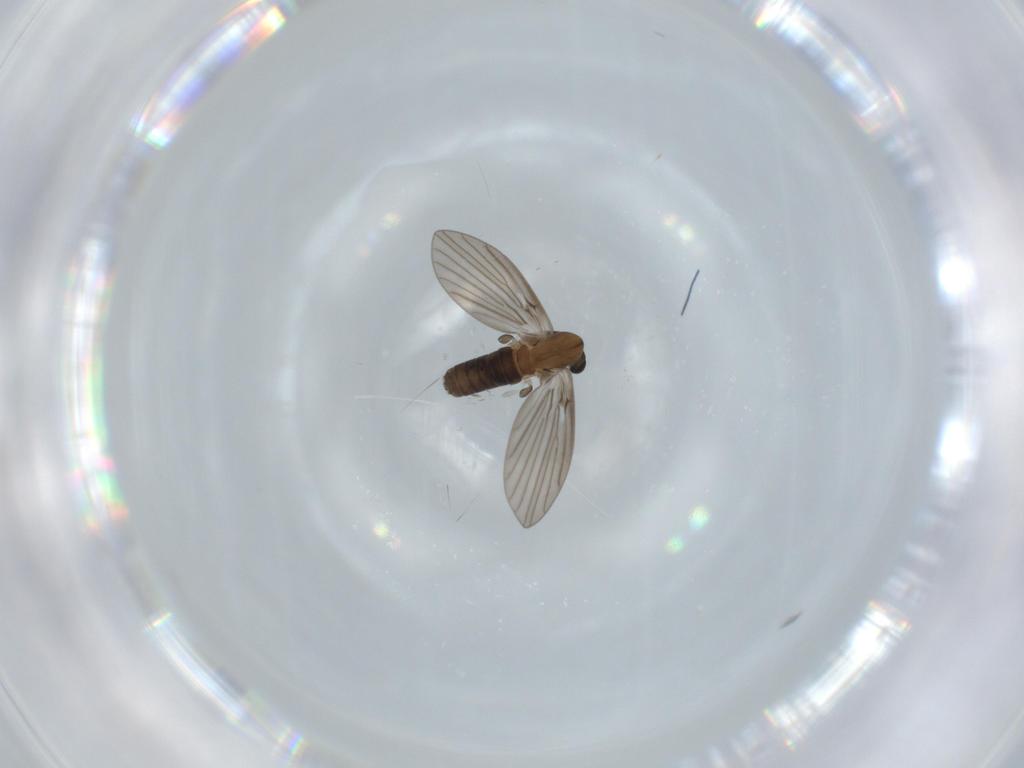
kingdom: Animalia
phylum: Arthropoda
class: Insecta
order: Diptera
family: Psychodidae
